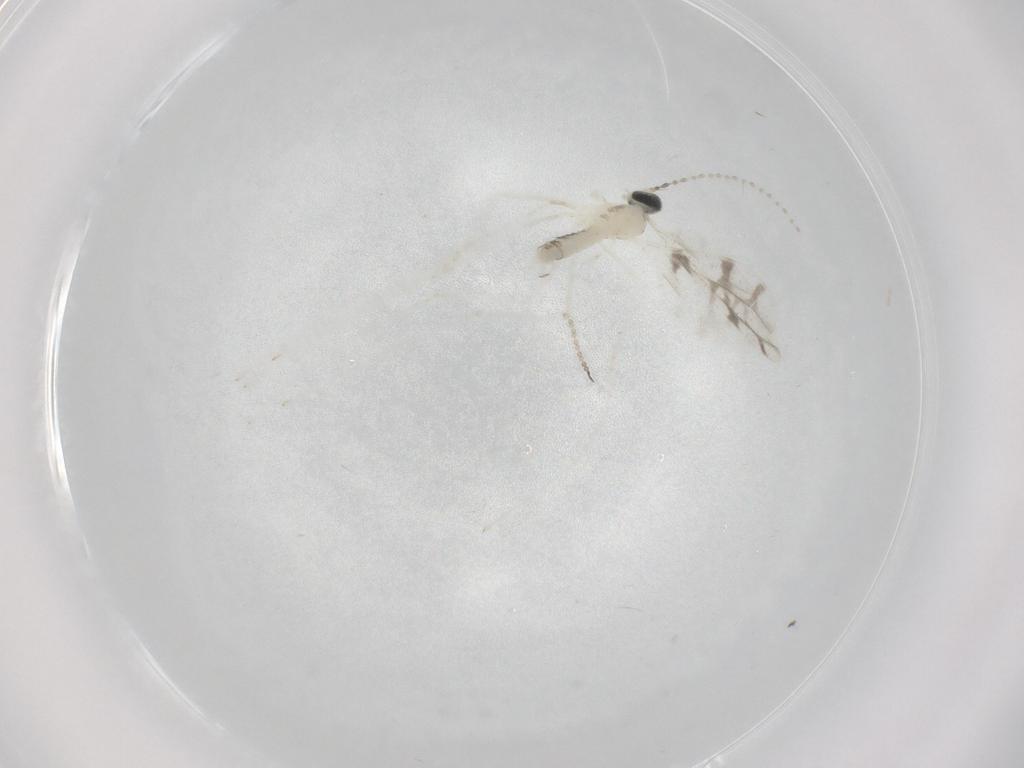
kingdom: Animalia
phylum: Arthropoda
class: Insecta
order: Diptera
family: Cecidomyiidae
